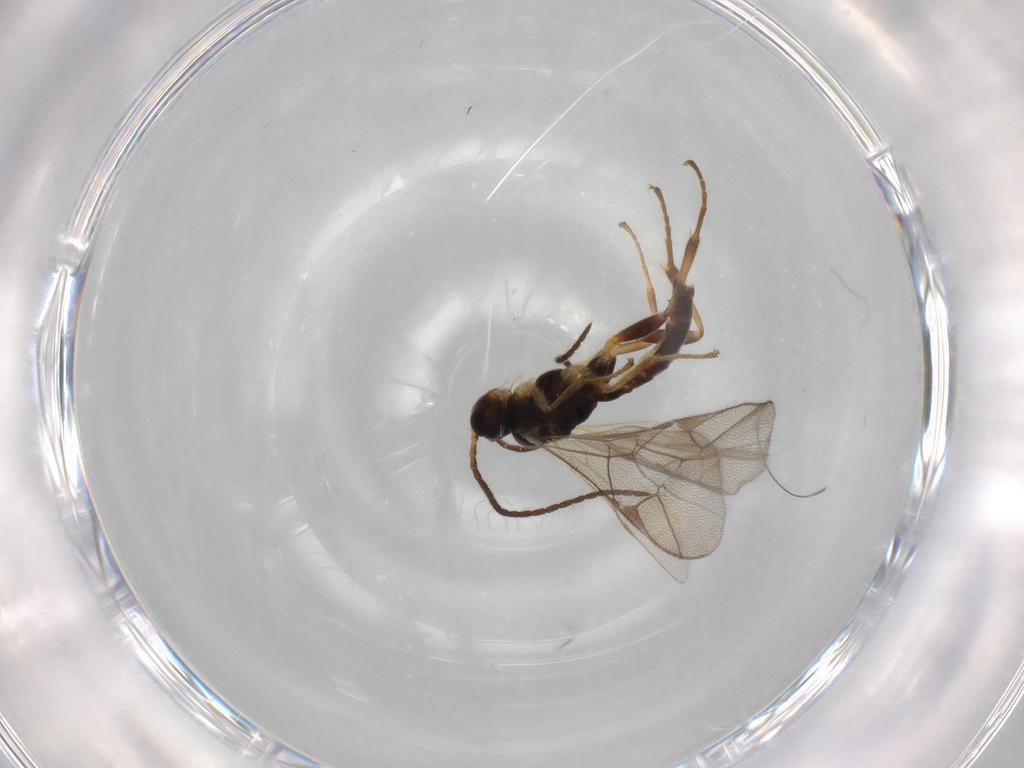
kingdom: Animalia
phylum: Arthropoda
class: Insecta
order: Hymenoptera
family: Ichneumonidae
